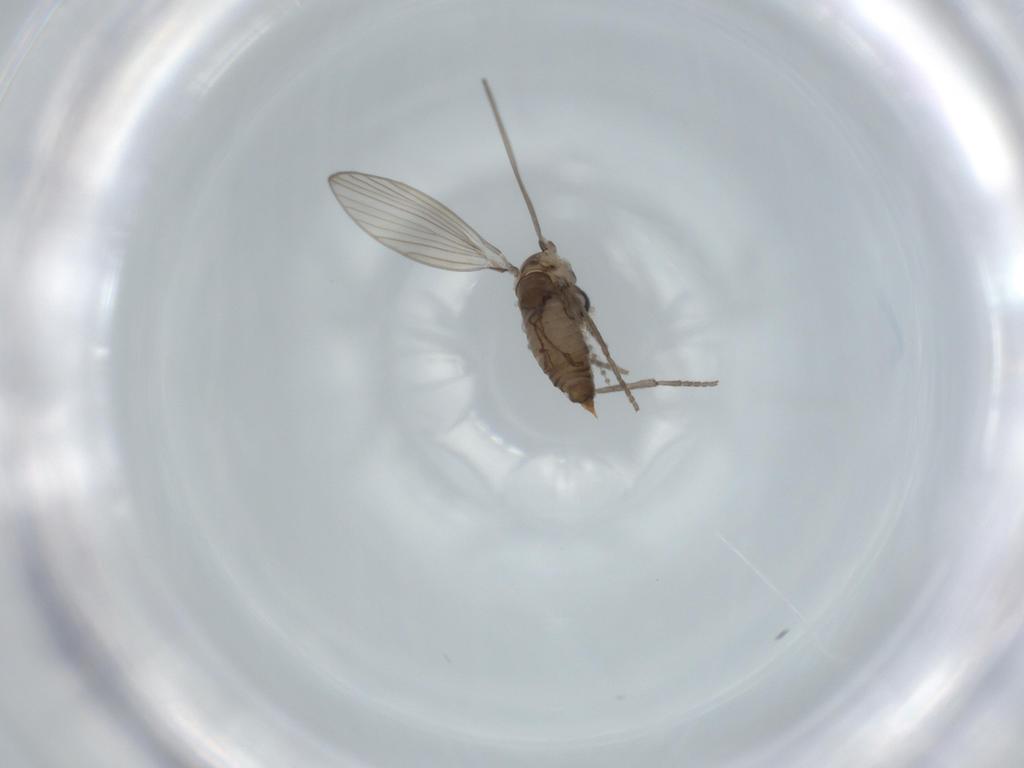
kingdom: Animalia
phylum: Arthropoda
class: Insecta
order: Diptera
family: Psychodidae
